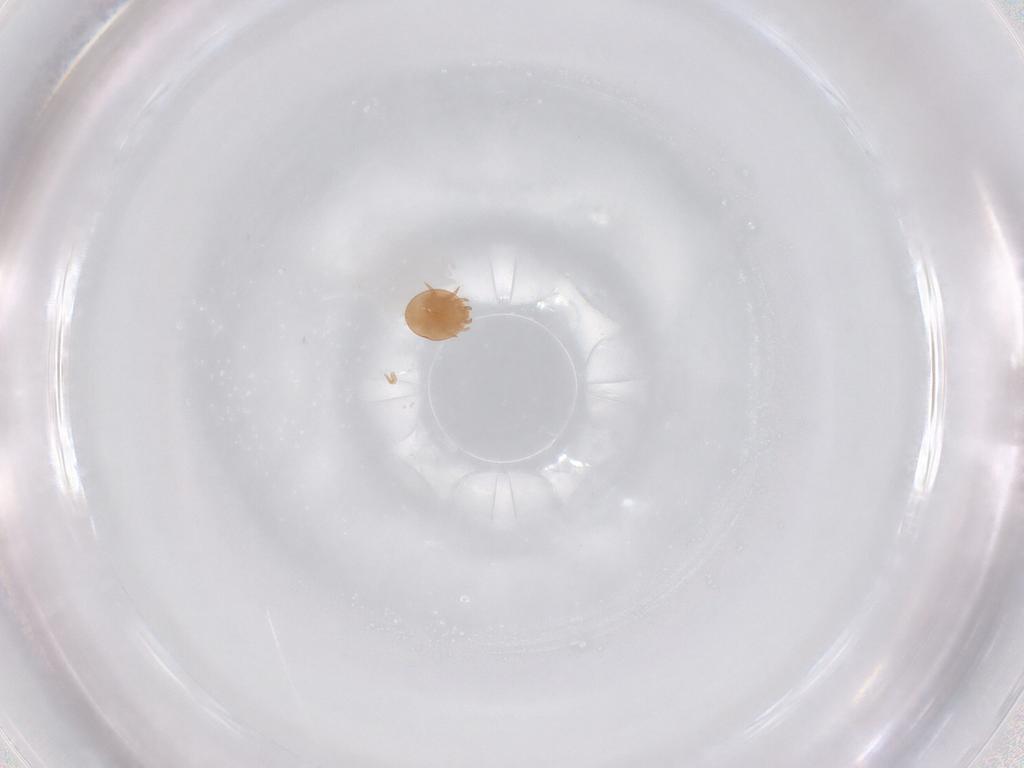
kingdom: Animalia
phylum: Arthropoda
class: Arachnida
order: Mesostigmata
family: Trematuridae
